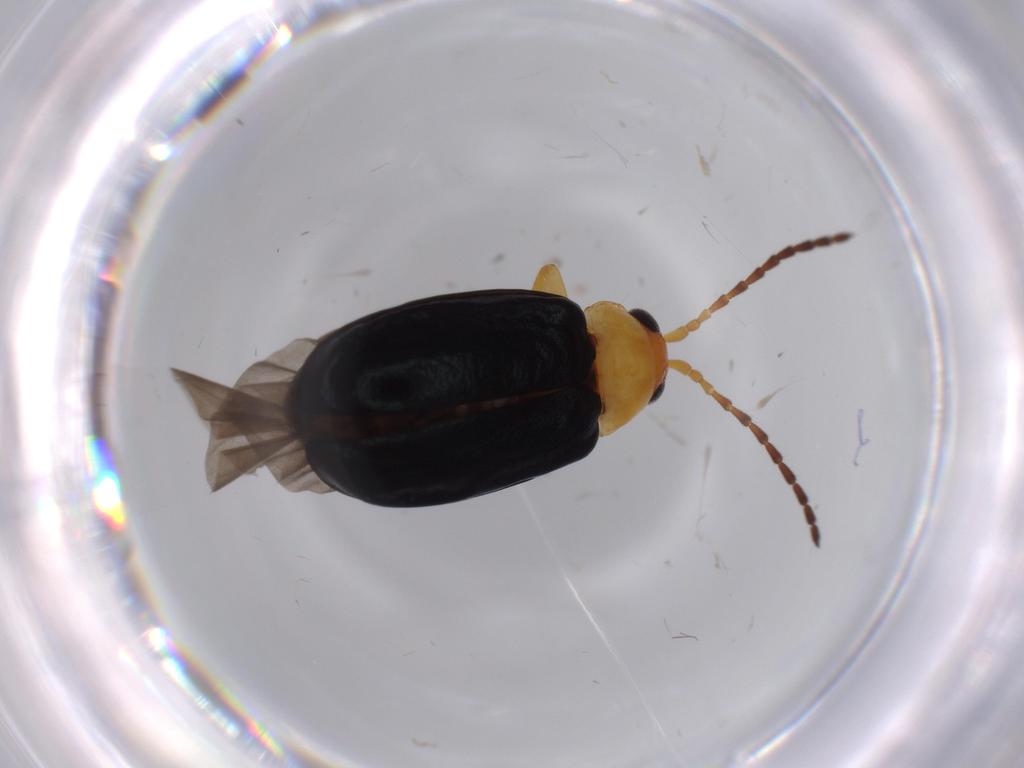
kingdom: Animalia
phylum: Arthropoda
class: Insecta
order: Coleoptera
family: Chrysomelidae
